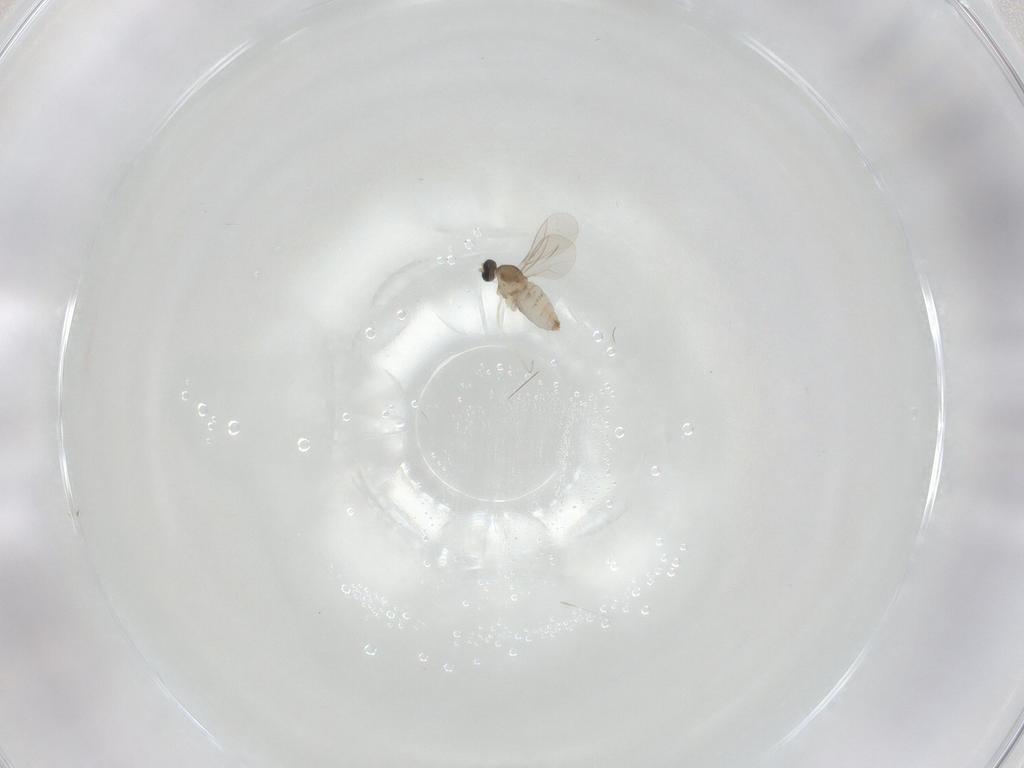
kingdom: Animalia
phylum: Arthropoda
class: Insecta
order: Diptera
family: Cecidomyiidae
